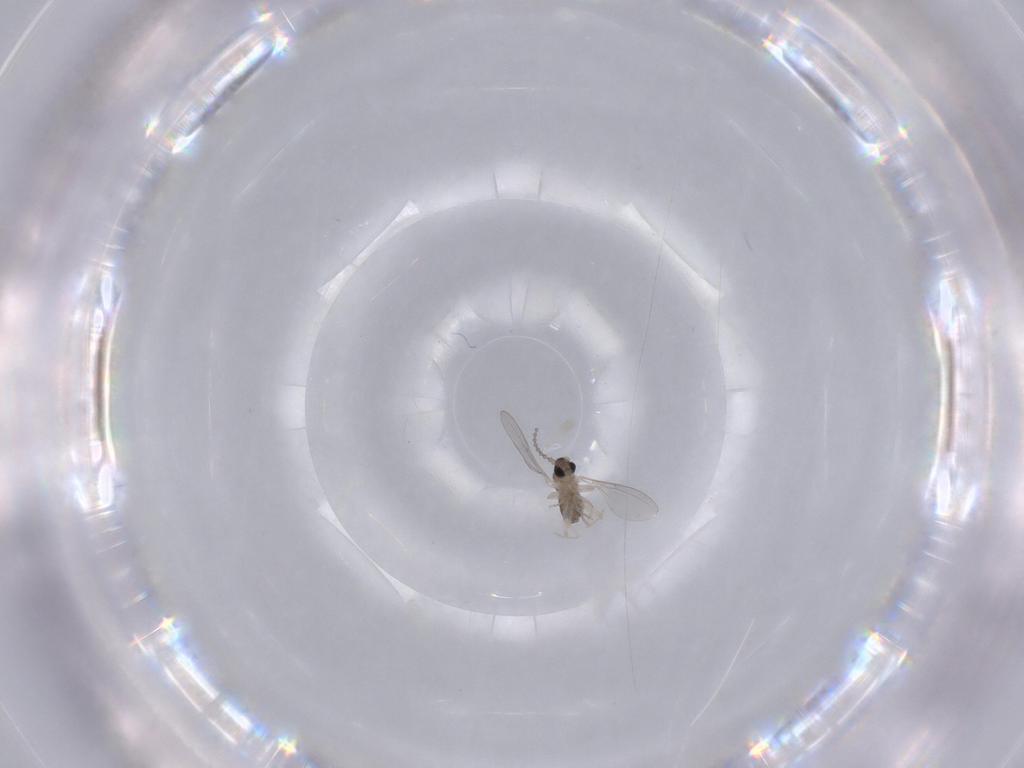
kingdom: Animalia
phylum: Arthropoda
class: Insecta
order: Diptera
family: Cecidomyiidae
